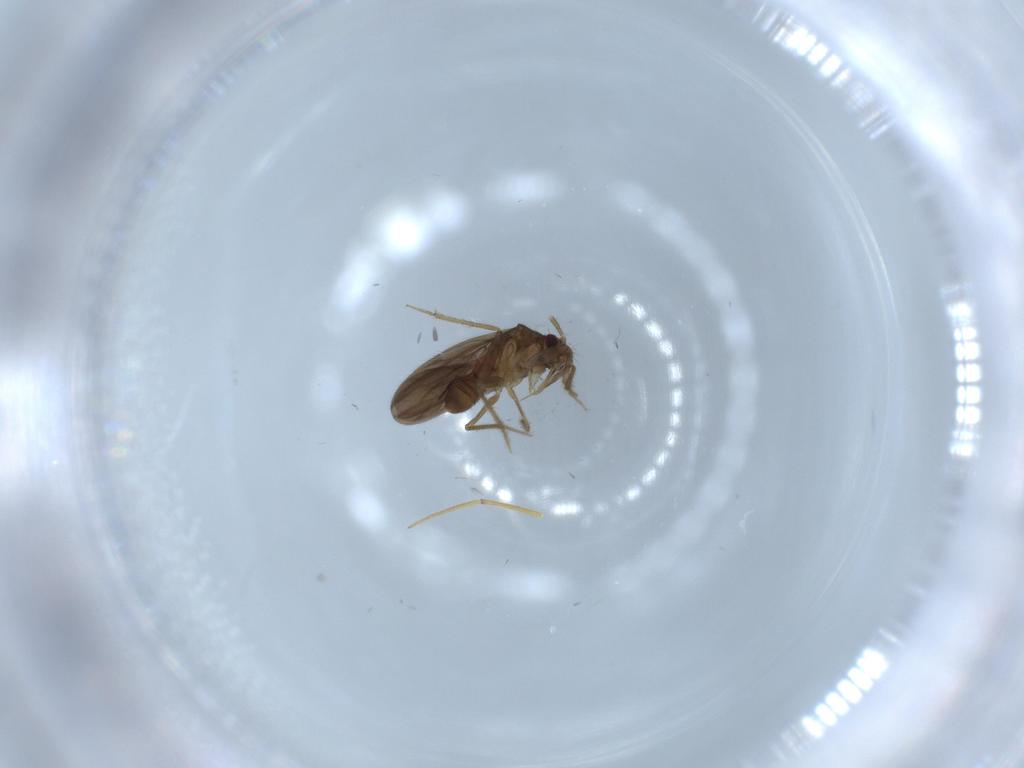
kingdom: Animalia
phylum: Arthropoda
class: Insecta
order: Hemiptera
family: Ceratocombidae
